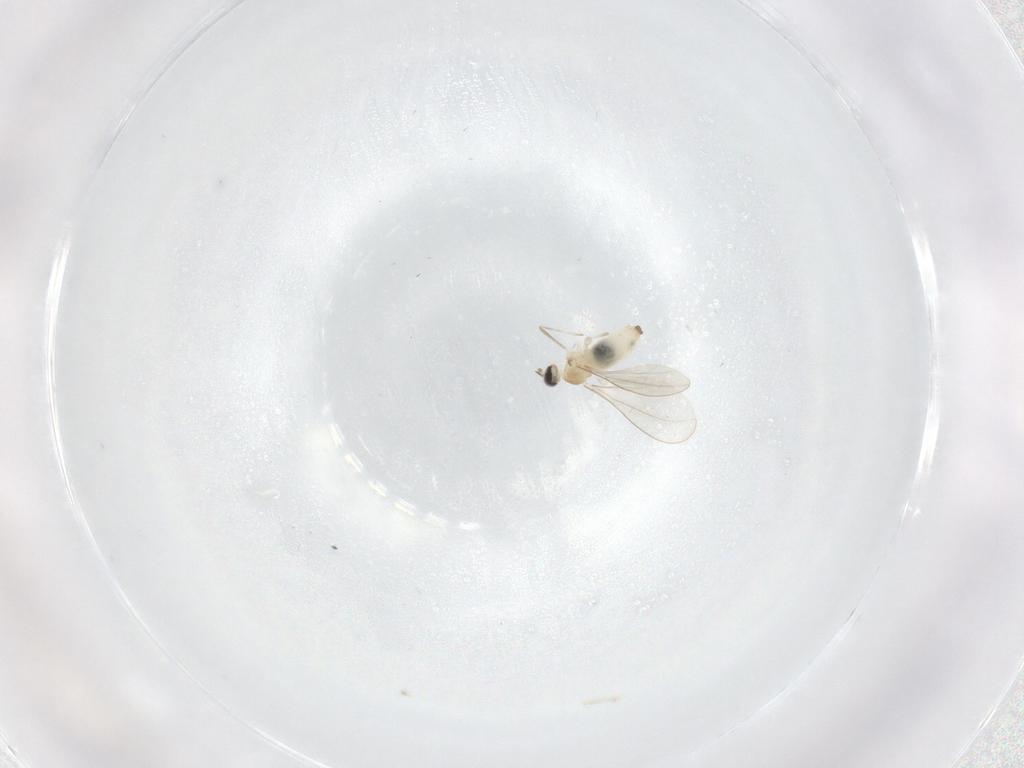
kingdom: Animalia
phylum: Arthropoda
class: Insecta
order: Diptera
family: Cecidomyiidae
